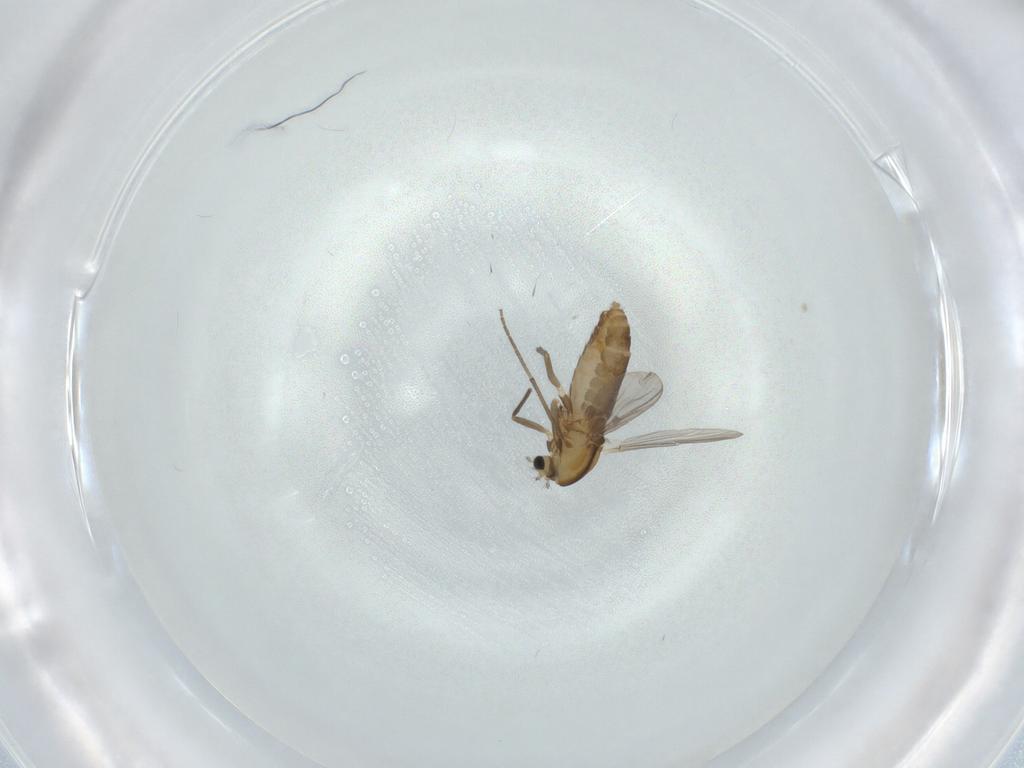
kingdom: Animalia
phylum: Arthropoda
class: Insecta
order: Diptera
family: Chironomidae
